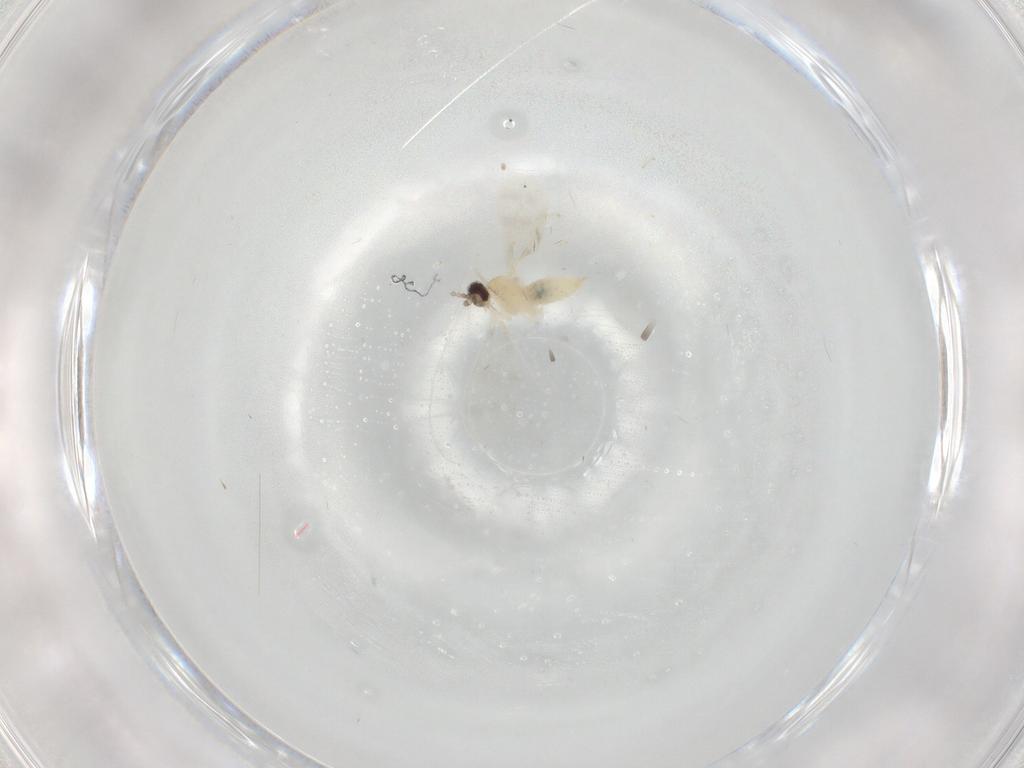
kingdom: Animalia
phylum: Arthropoda
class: Insecta
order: Diptera
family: Cecidomyiidae
